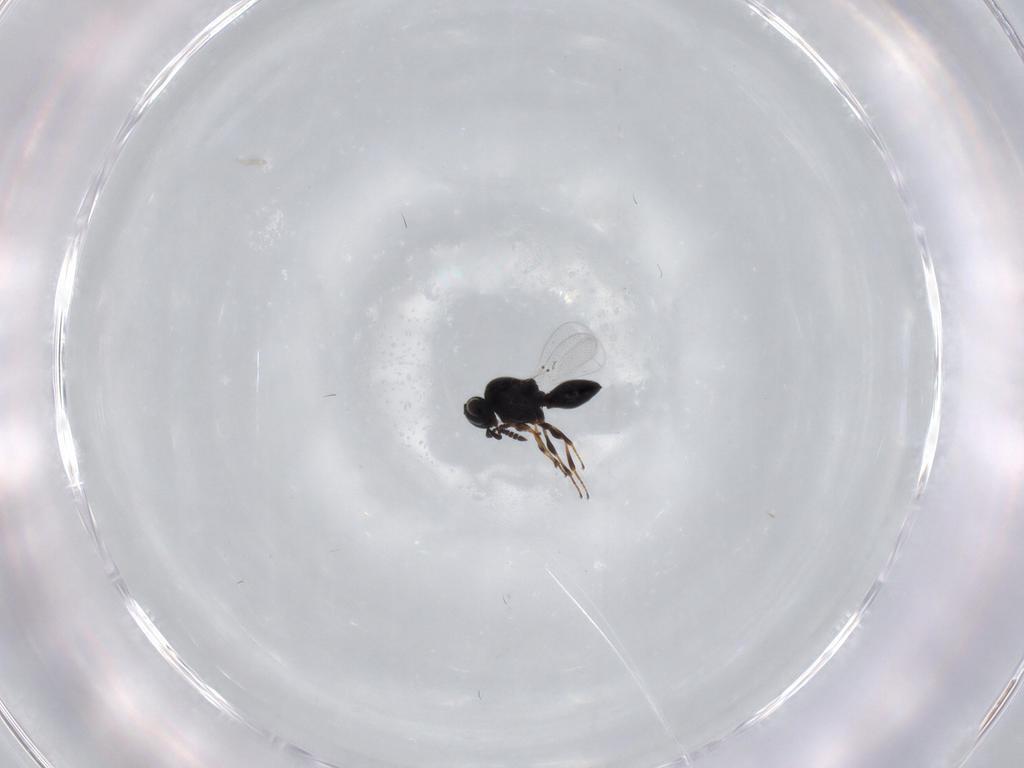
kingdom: Animalia
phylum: Arthropoda
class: Insecta
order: Hymenoptera
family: Platygastridae
